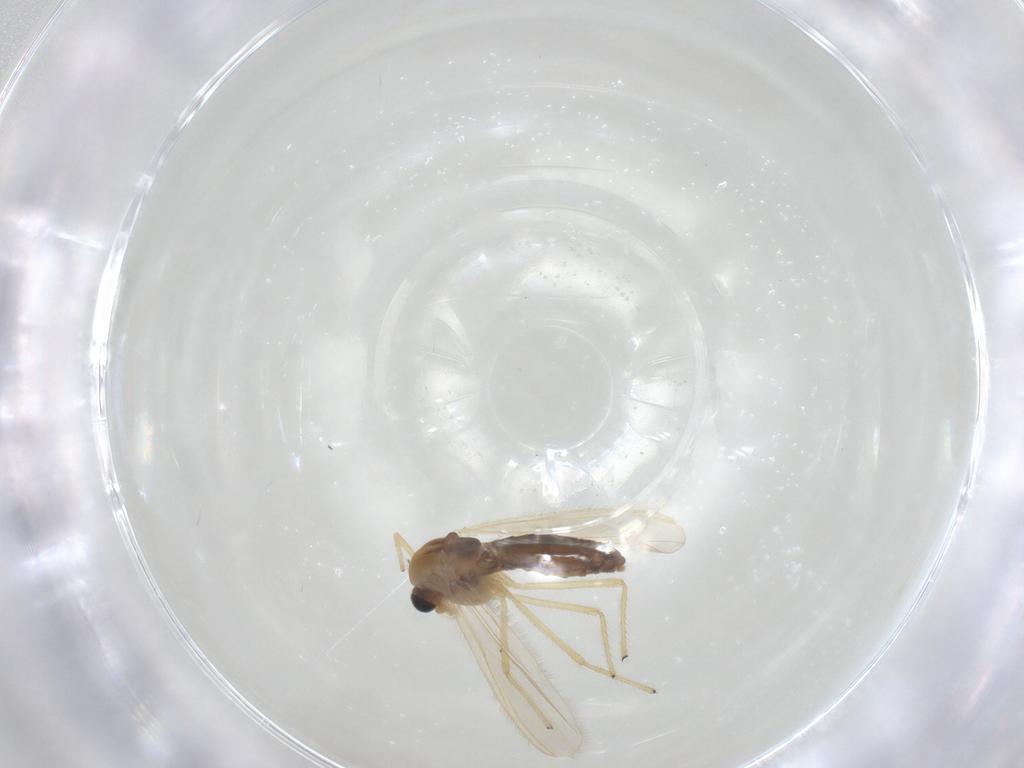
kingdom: Animalia
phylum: Arthropoda
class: Insecta
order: Diptera
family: Chironomidae
